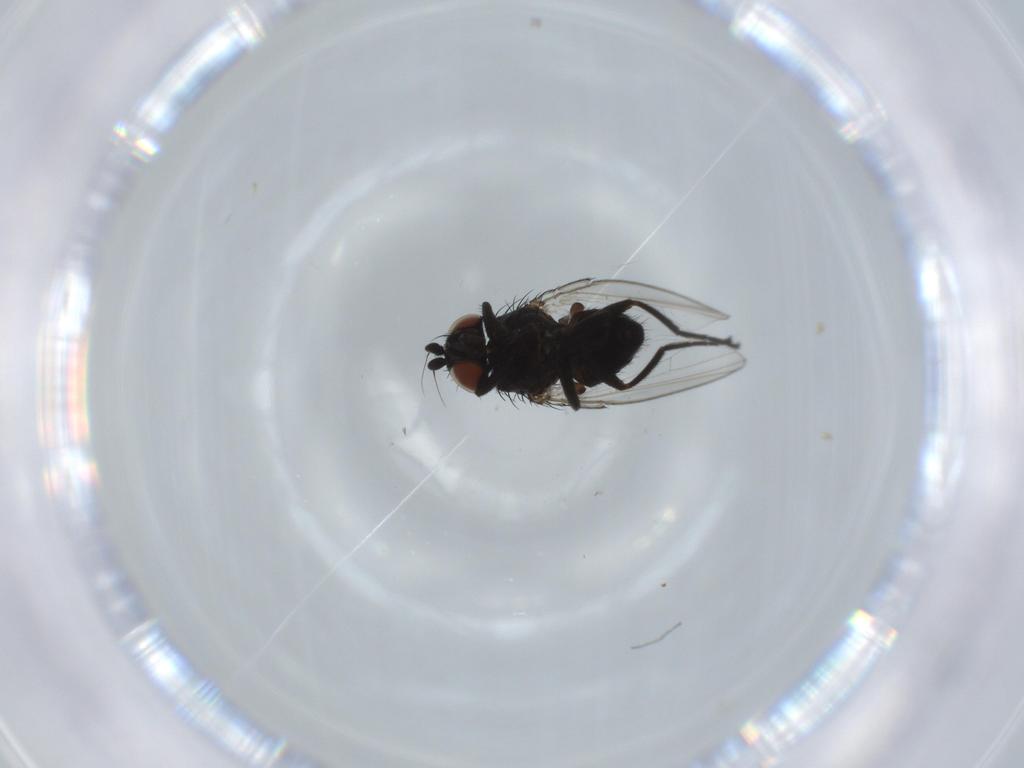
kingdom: Animalia
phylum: Arthropoda
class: Insecta
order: Diptera
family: Milichiidae
